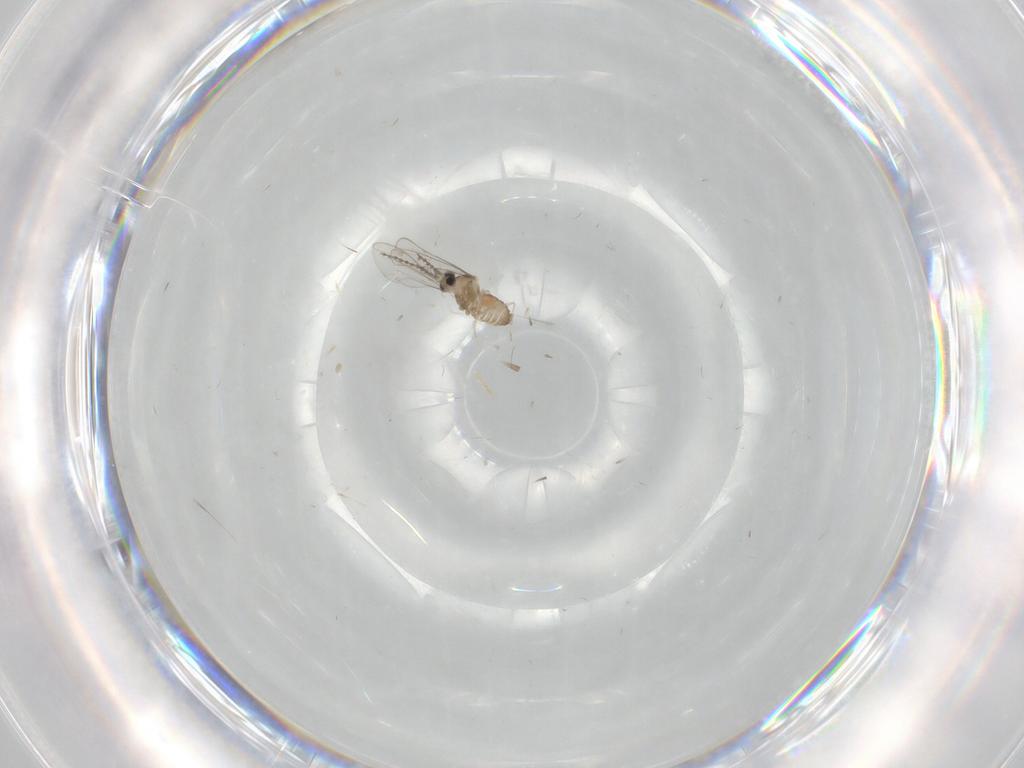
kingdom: Animalia
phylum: Arthropoda
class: Insecta
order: Diptera
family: Cecidomyiidae
